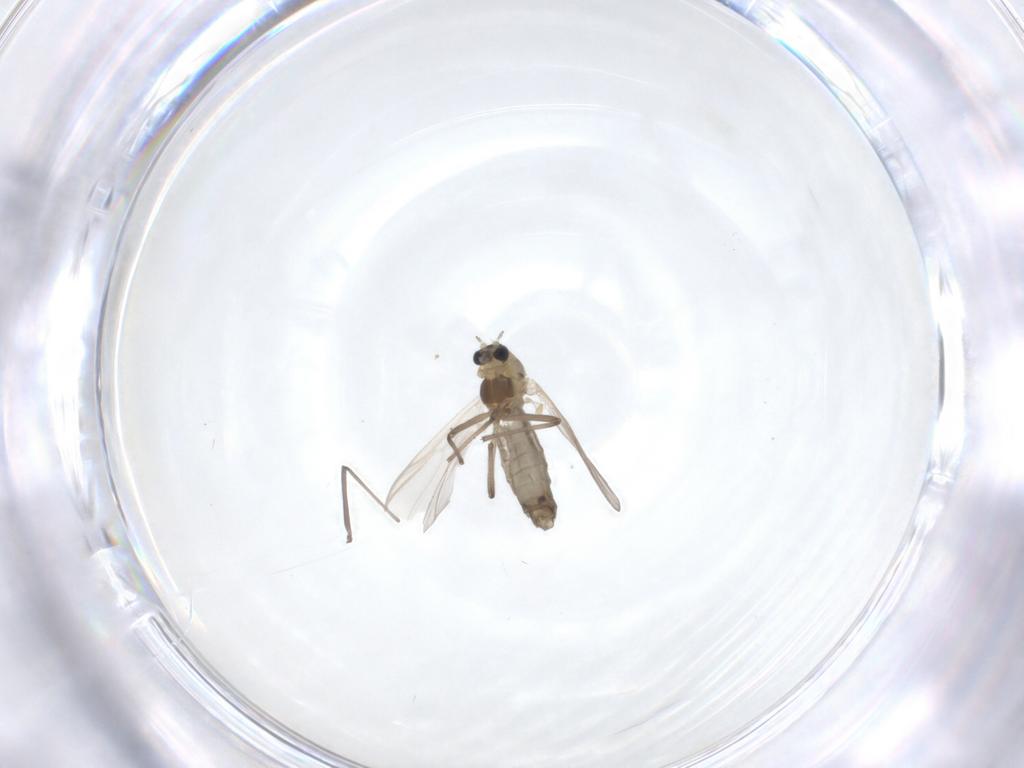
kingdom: Animalia
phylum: Arthropoda
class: Insecta
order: Diptera
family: Chironomidae
